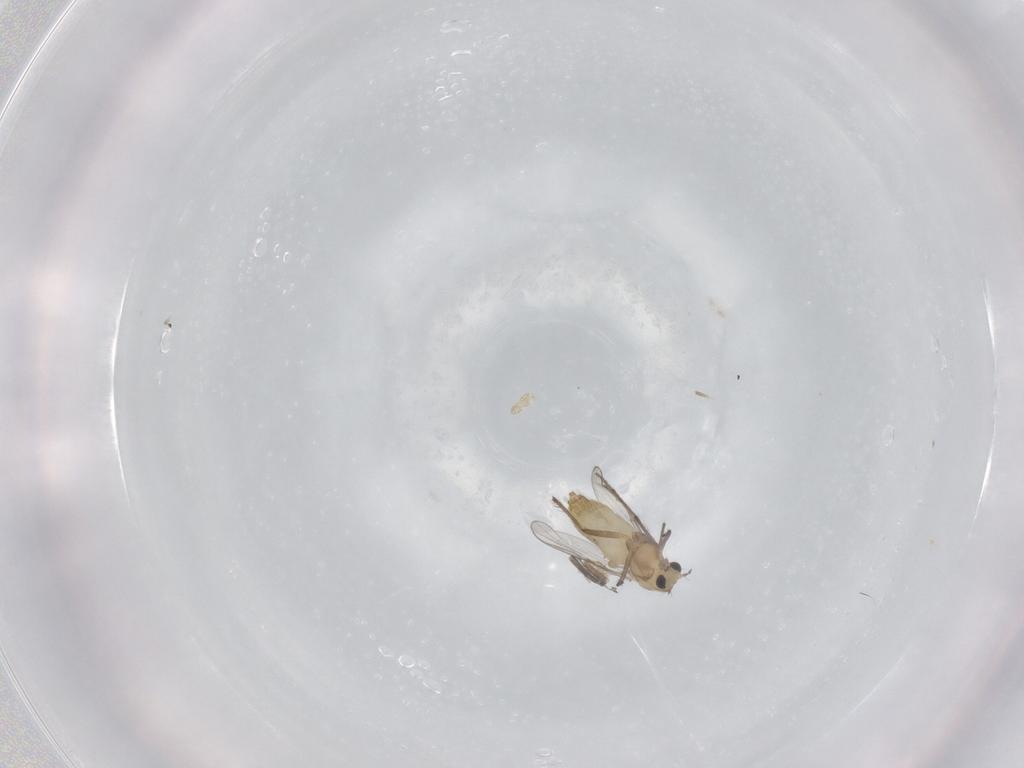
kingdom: Animalia
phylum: Arthropoda
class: Insecta
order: Diptera
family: Chironomidae
